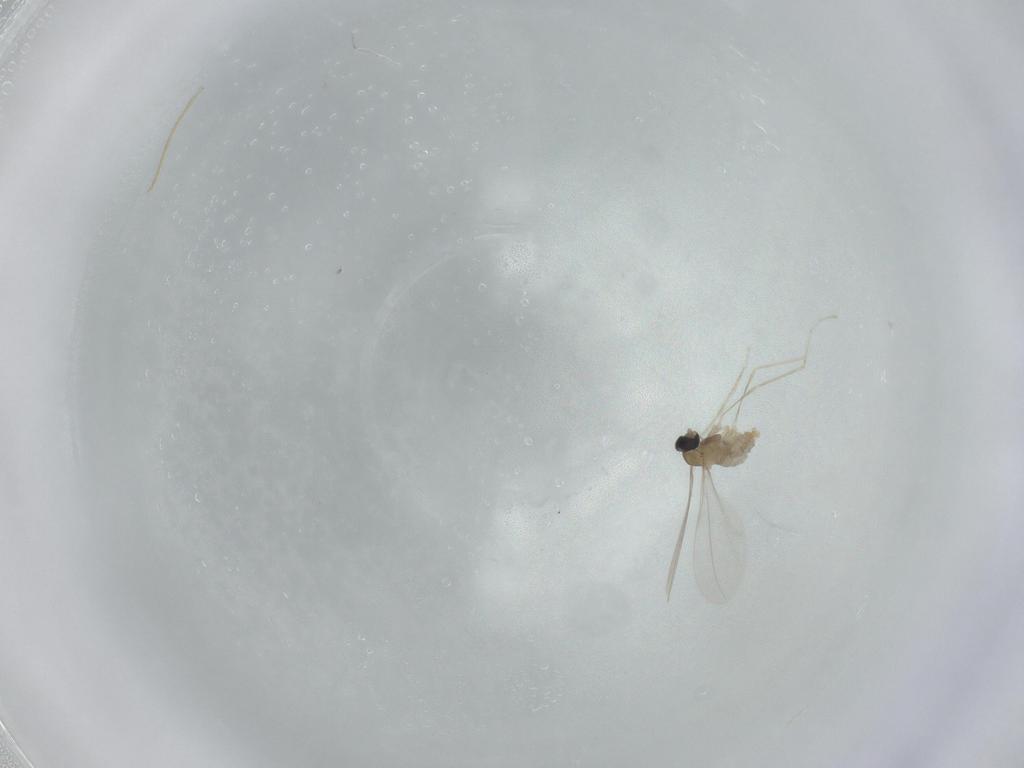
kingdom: Animalia
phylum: Arthropoda
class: Insecta
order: Diptera
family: Cecidomyiidae
